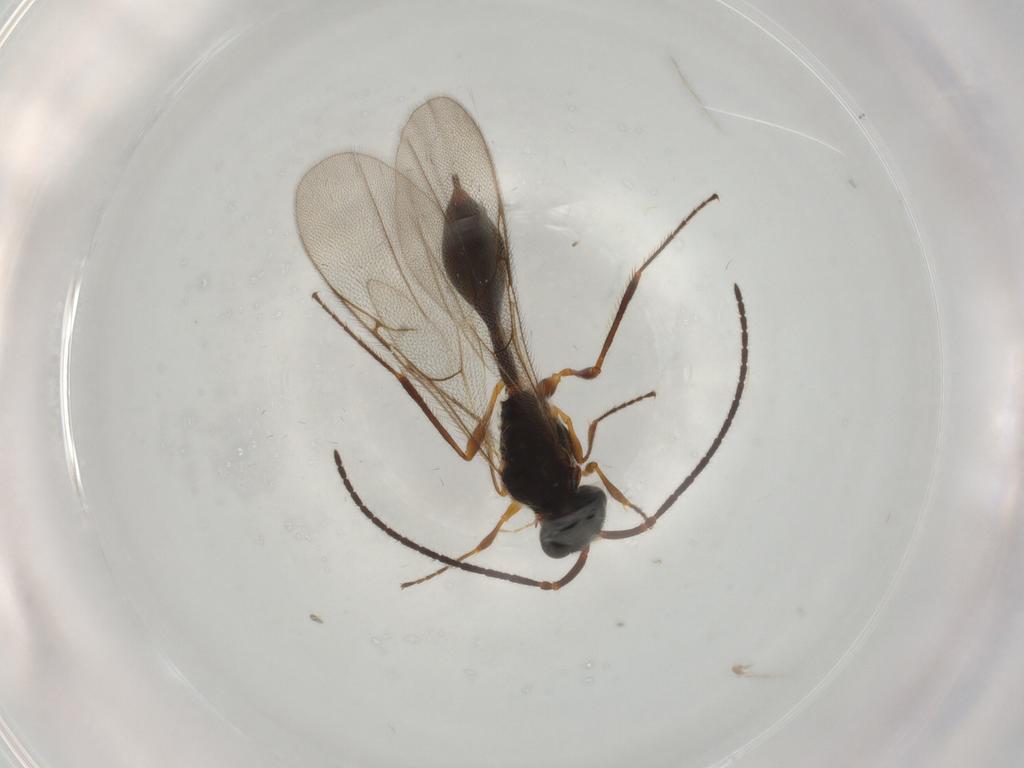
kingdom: Animalia
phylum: Arthropoda
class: Insecta
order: Hymenoptera
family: Diapriidae
